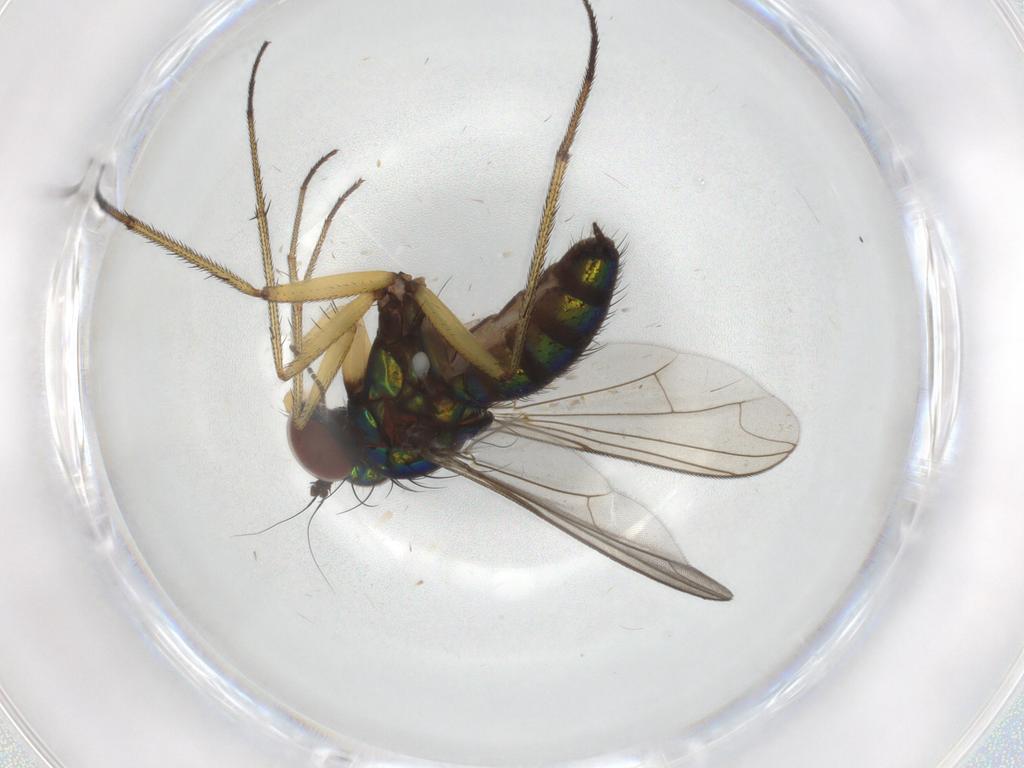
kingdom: Animalia
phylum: Arthropoda
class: Insecta
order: Diptera
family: Dolichopodidae
